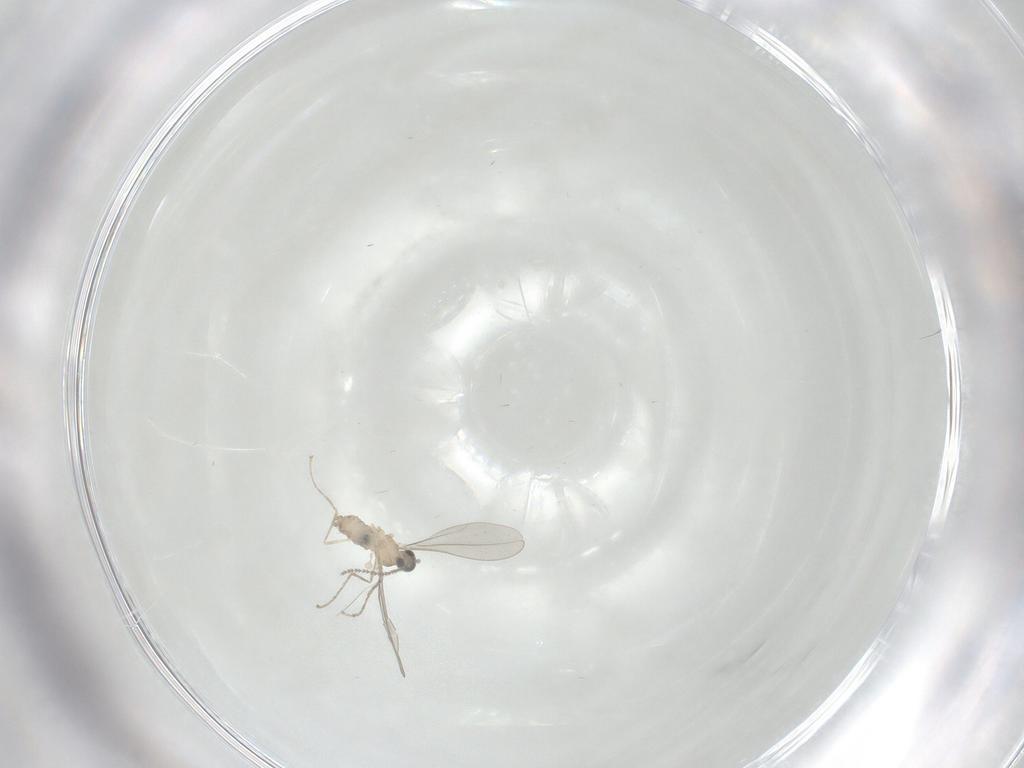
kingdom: Animalia
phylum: Arthropoda
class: Insecta
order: Diptera
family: Cecidomyiidae
